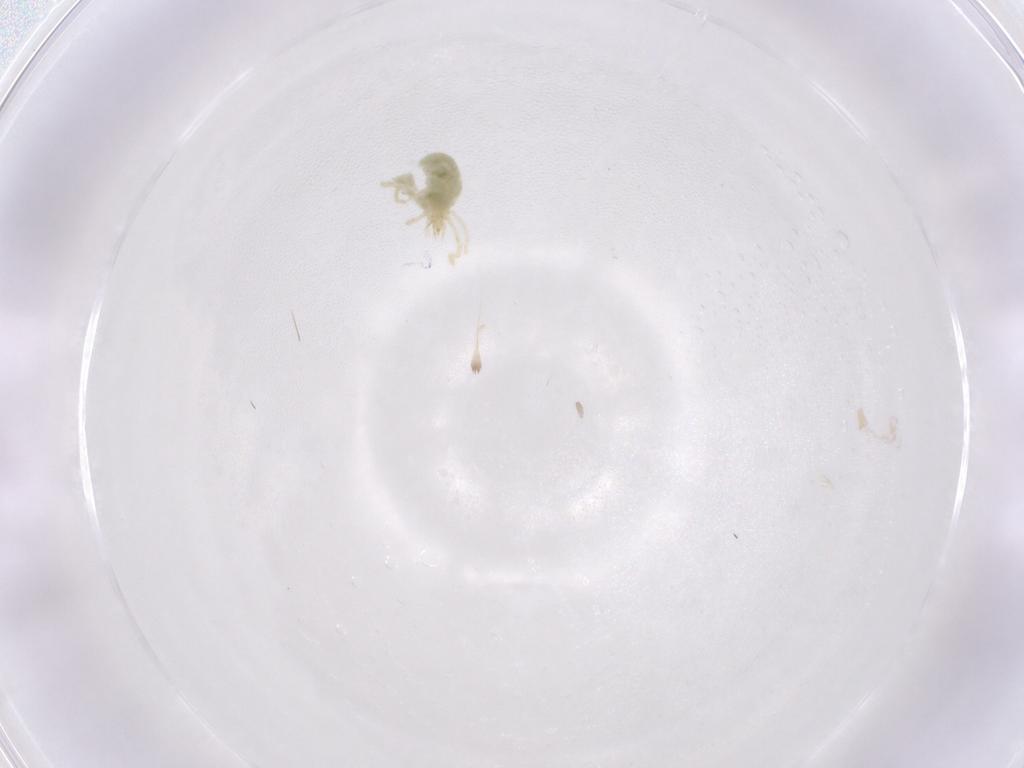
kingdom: Animalia
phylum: Arthropoda
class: Arachnida
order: Trombidiformes
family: Erythraeidae
